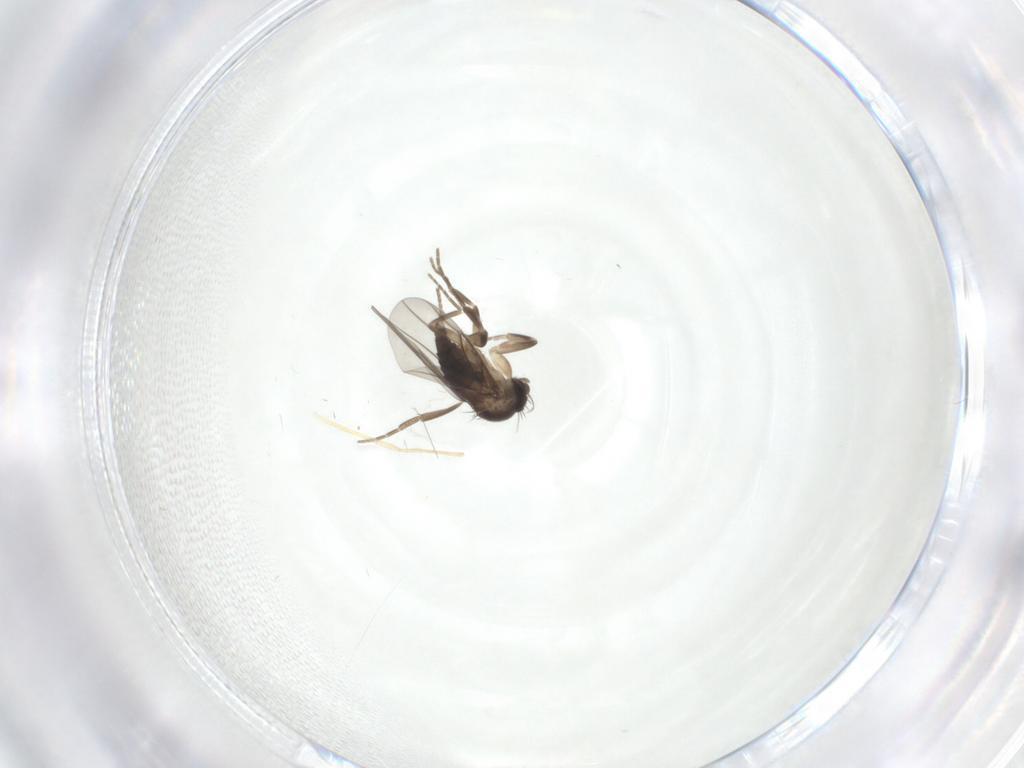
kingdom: Animalia
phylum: Arthropoda
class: Insecta
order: Diptera
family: Chironomidae
